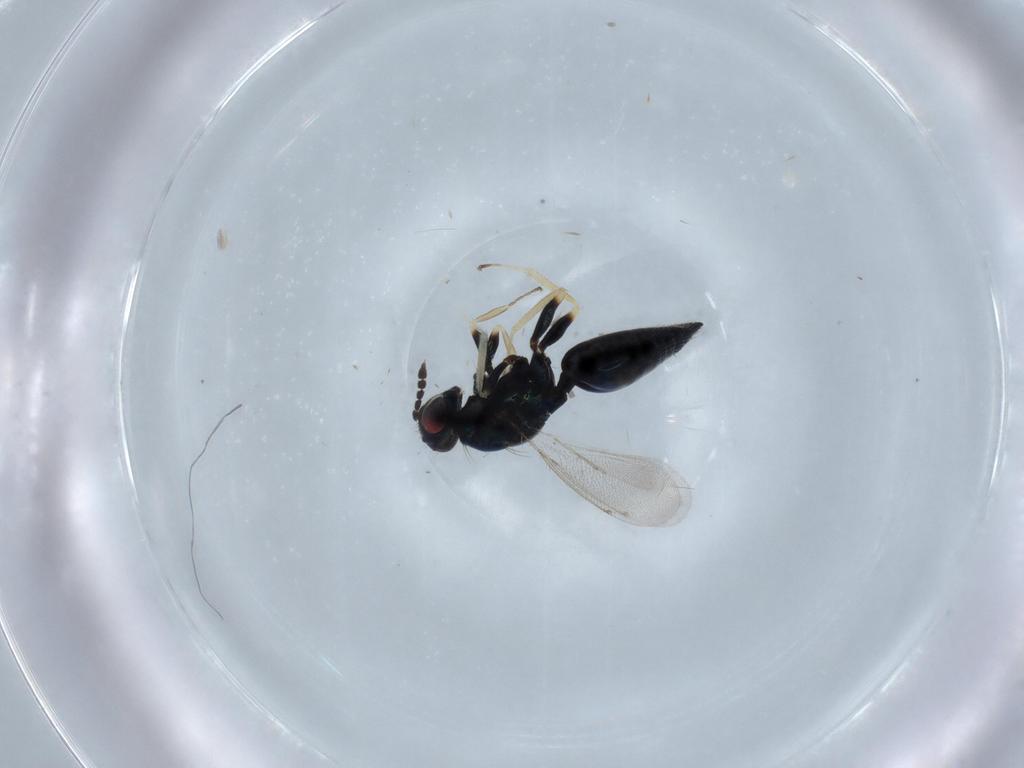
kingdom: Animalia
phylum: Arthropoda
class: Insecta
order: Hymenoptera
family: Eulophidae
